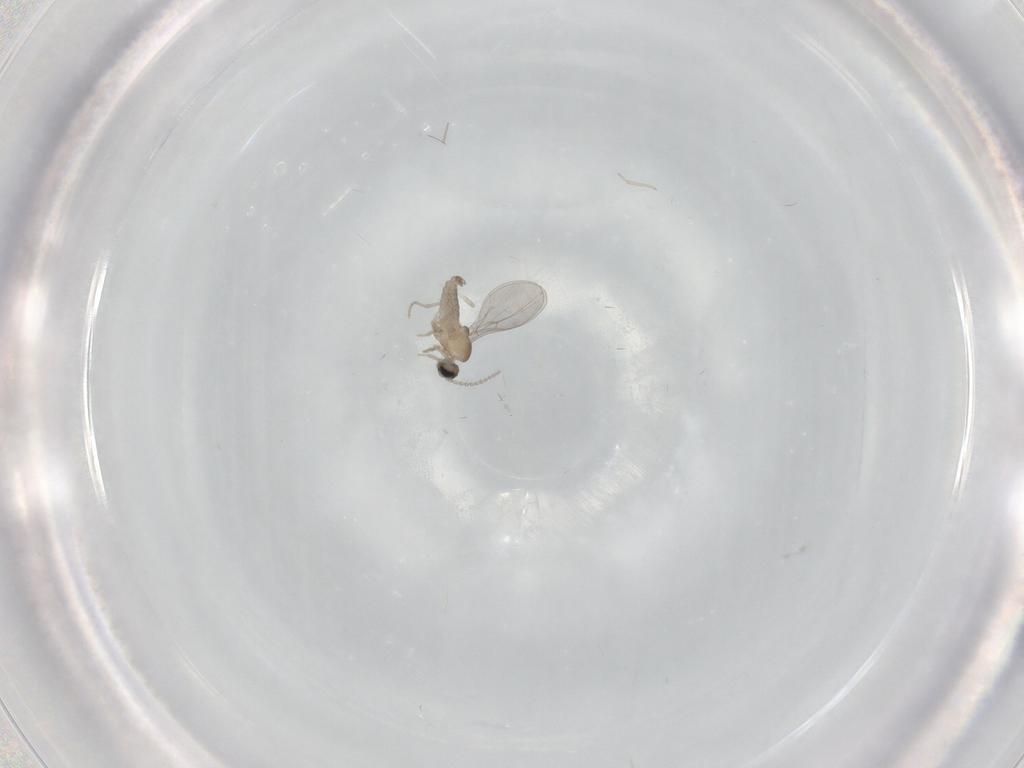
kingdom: Animalia
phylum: Arthropoda
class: Insecta
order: Diptera
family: Cecidomyiidae
